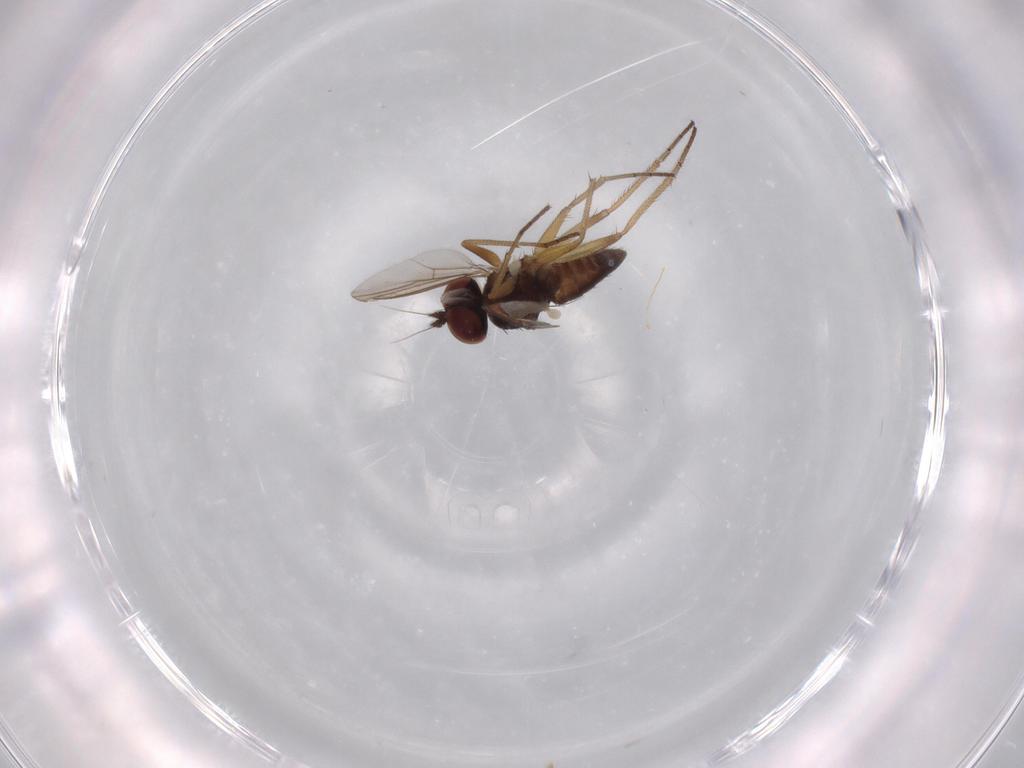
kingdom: Animalia
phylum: Arthropoda
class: Insecta
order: Diptera
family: Dolichopodidae
